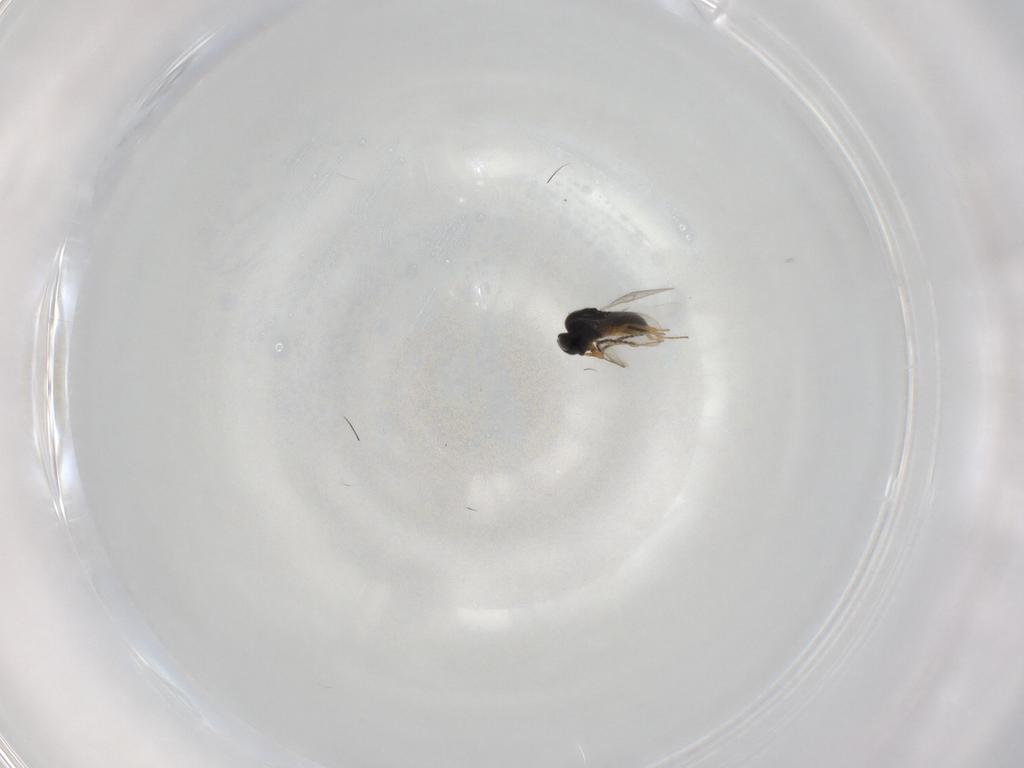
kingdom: Animalia
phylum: Arthropoda
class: Insecta
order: Hymenoptera
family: Scelionidae
